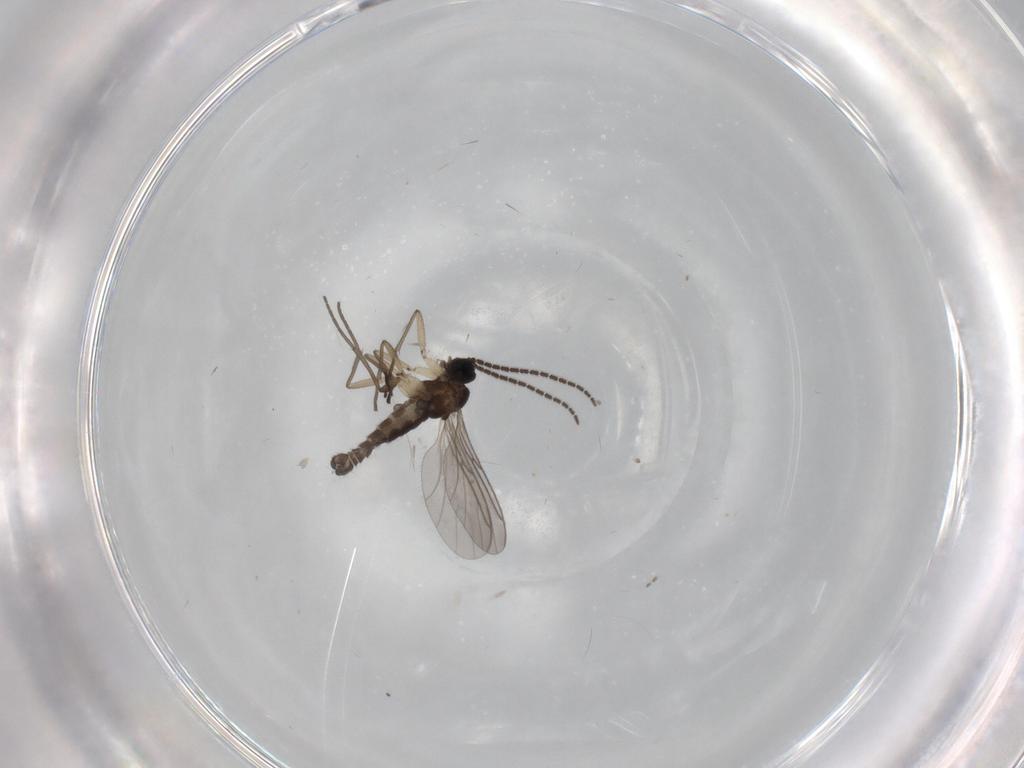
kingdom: Animalia
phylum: Arthropoda
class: Insecta
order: Diptera
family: Sciaridae
